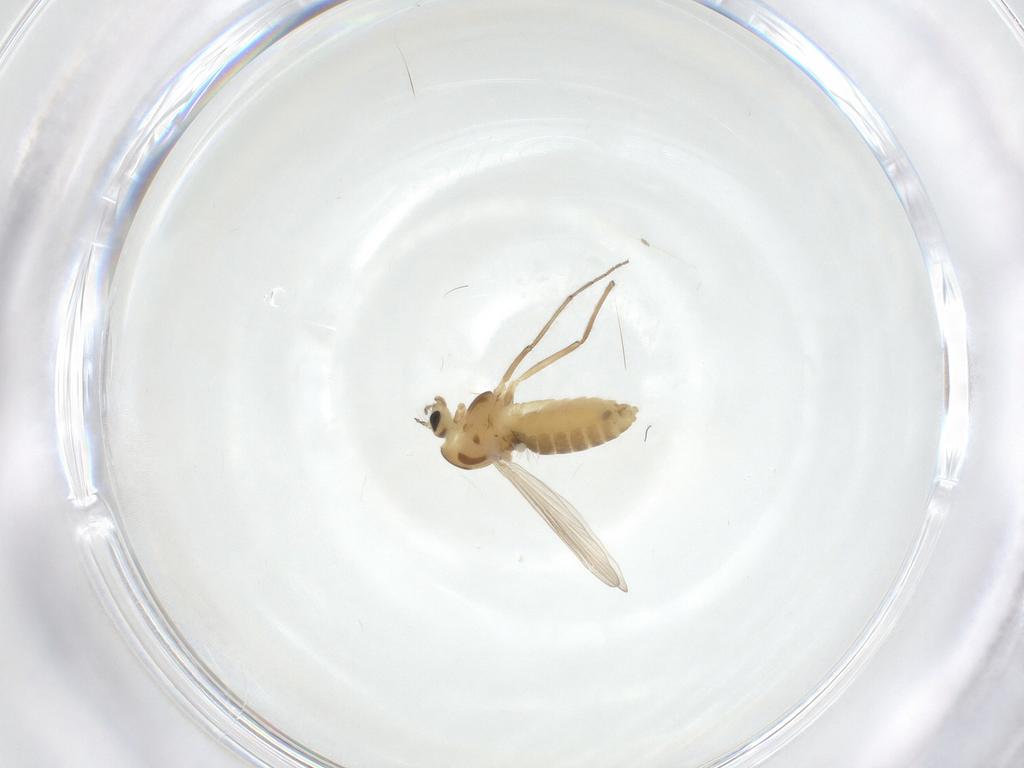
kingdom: Animalia
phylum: Arthropoda
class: Insecta
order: Diptera
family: Chironomidae
